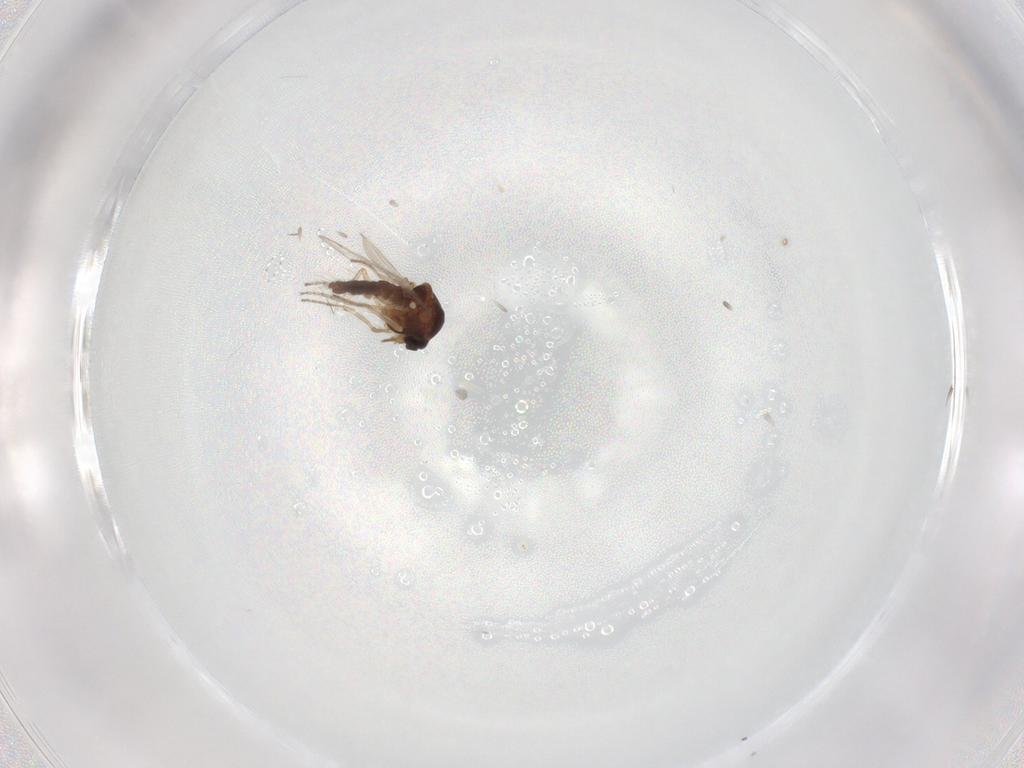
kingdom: Animalia
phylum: Arthropoda
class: Insecta
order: Diptera
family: Ceratopogonidae
